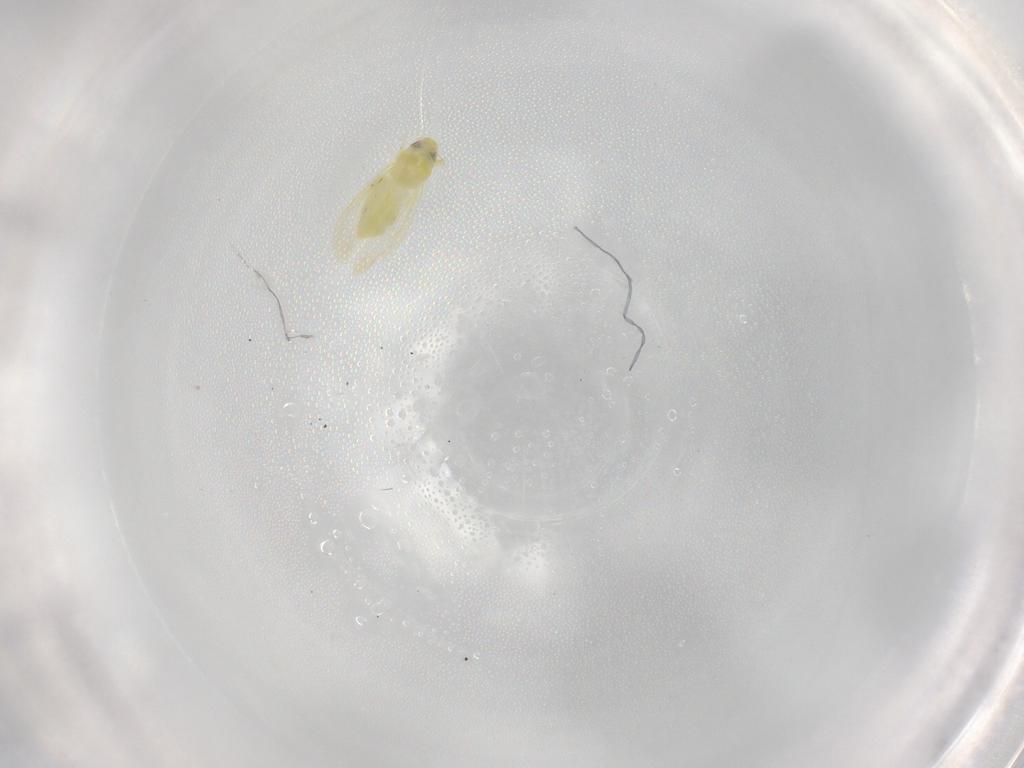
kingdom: Animalia
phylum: Arthropoda
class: Insecta
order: Hemiptera
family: Aleyrodidae
